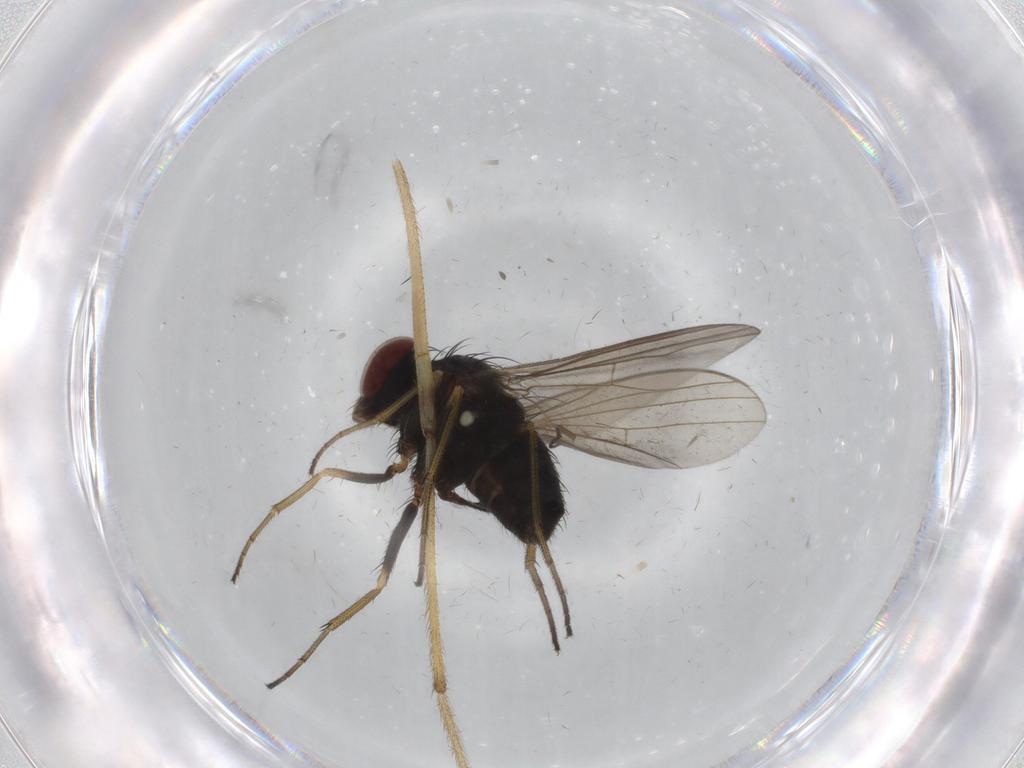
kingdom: Animalia
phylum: Arthropoda
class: Insecta
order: Diptera
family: Dolichopodidae
